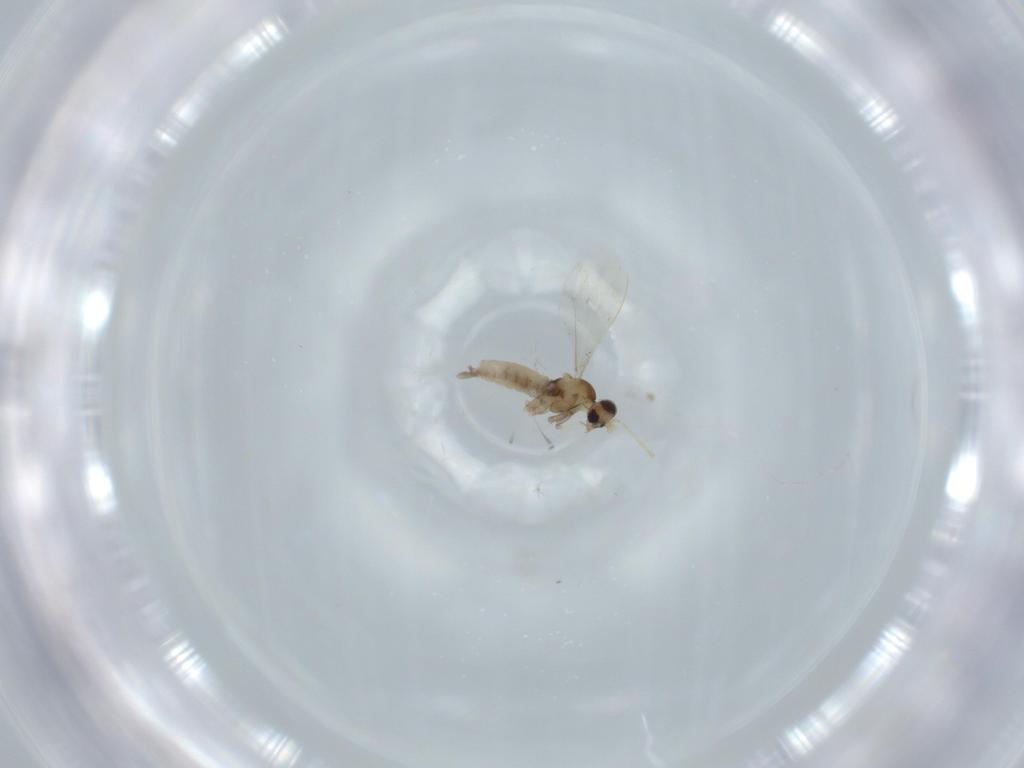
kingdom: Animalia
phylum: Arthropoda
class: Insecta
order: Diptera
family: Cecidomyiidae
